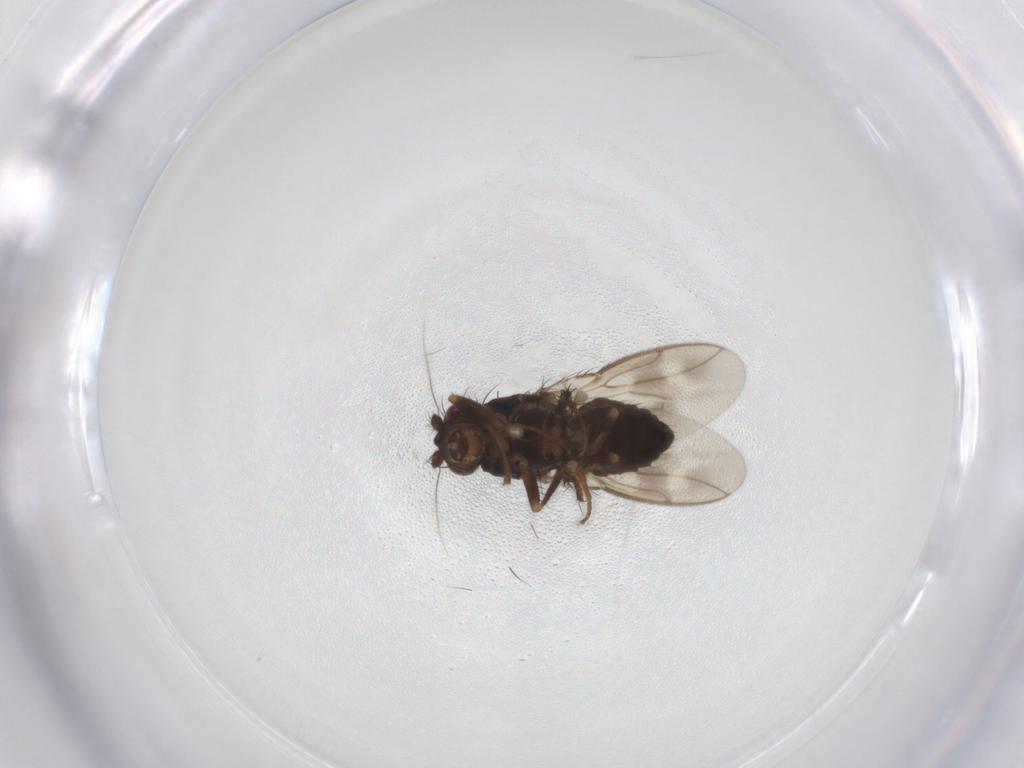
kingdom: Animalia
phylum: Arthropoda
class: Insecta
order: Diptera
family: Sphaeroceridae
